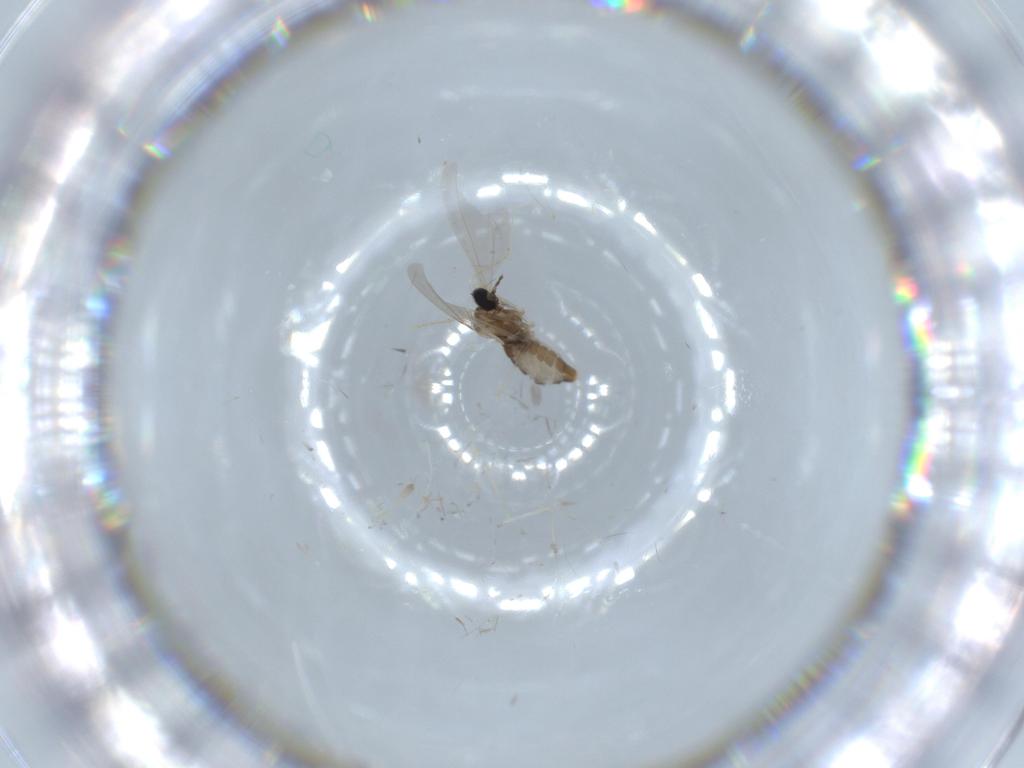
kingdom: Animalia
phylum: Arthropoda
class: Insecta
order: Diptera
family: Cecidomyiidae
